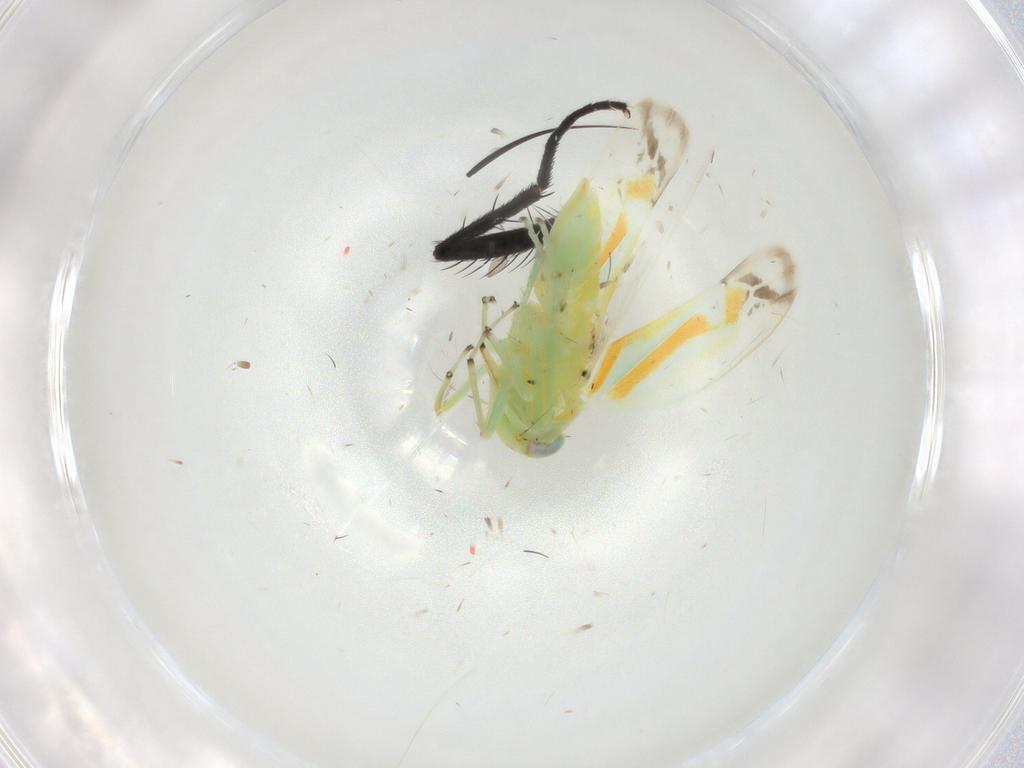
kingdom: Animalia
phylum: Arthropoda
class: Insecta
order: Hemiptera
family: Cicadellidae
